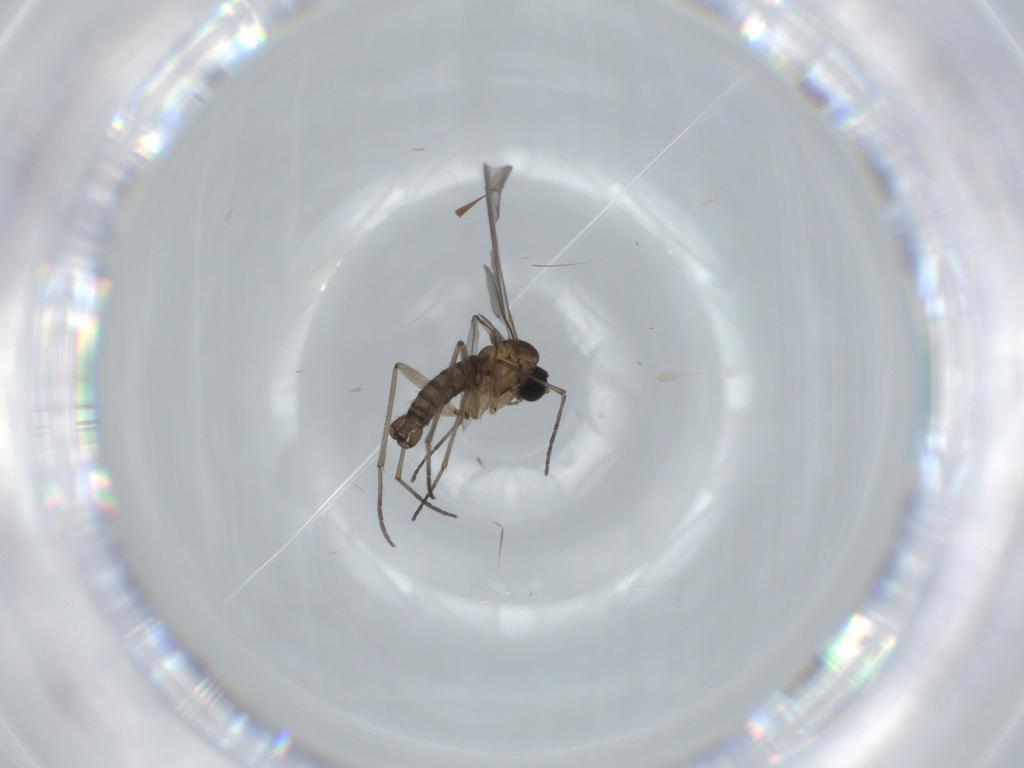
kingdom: Animalia
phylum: Arthropoda
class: Insecta
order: Diptera
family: Sciaridae
